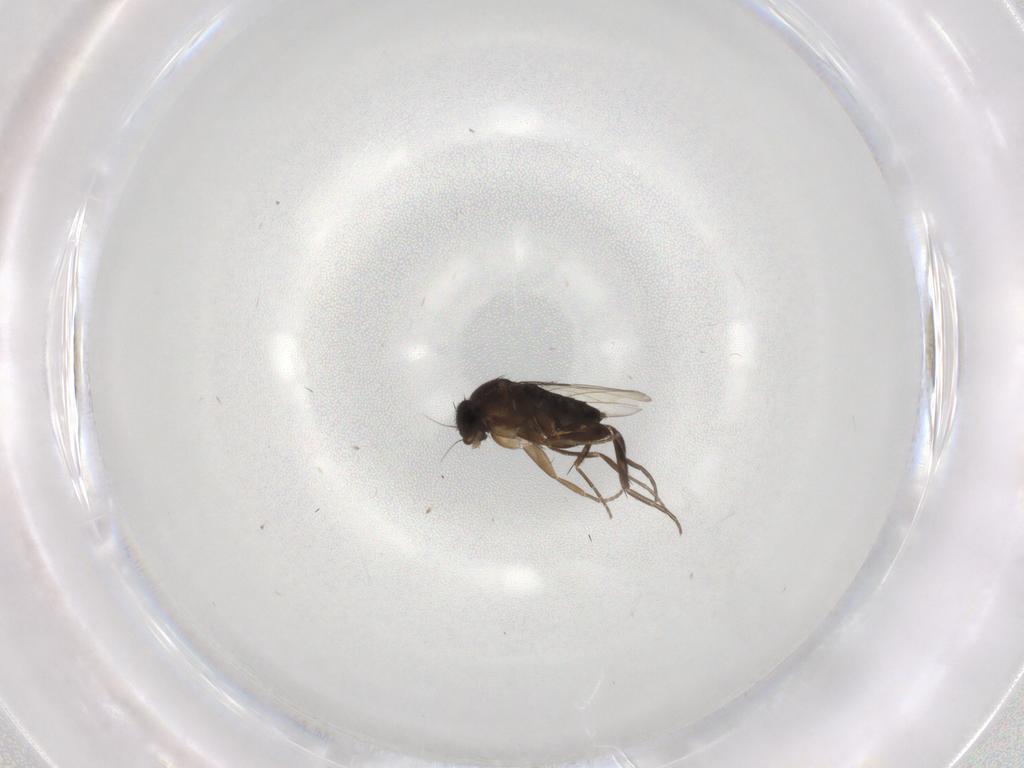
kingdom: Animalia
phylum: Arthropoda
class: Insecta
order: Diptera
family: Phoridae
